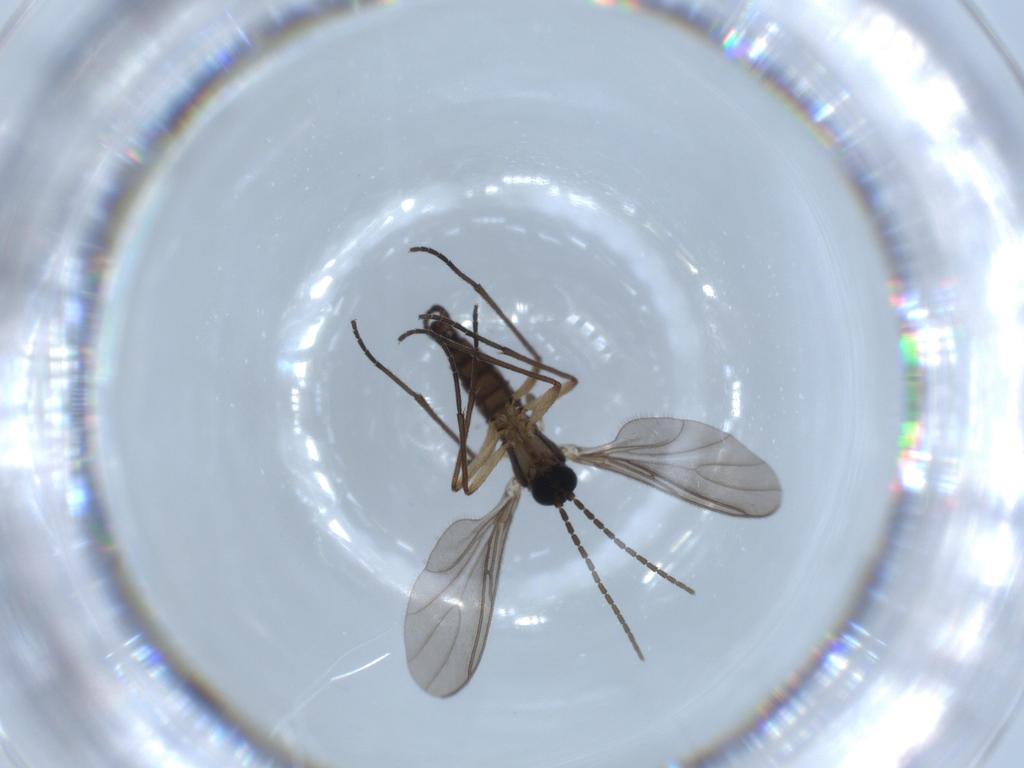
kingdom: Animalia
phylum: Arthropoda
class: Insecta
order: Diptera
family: Sciaridae
